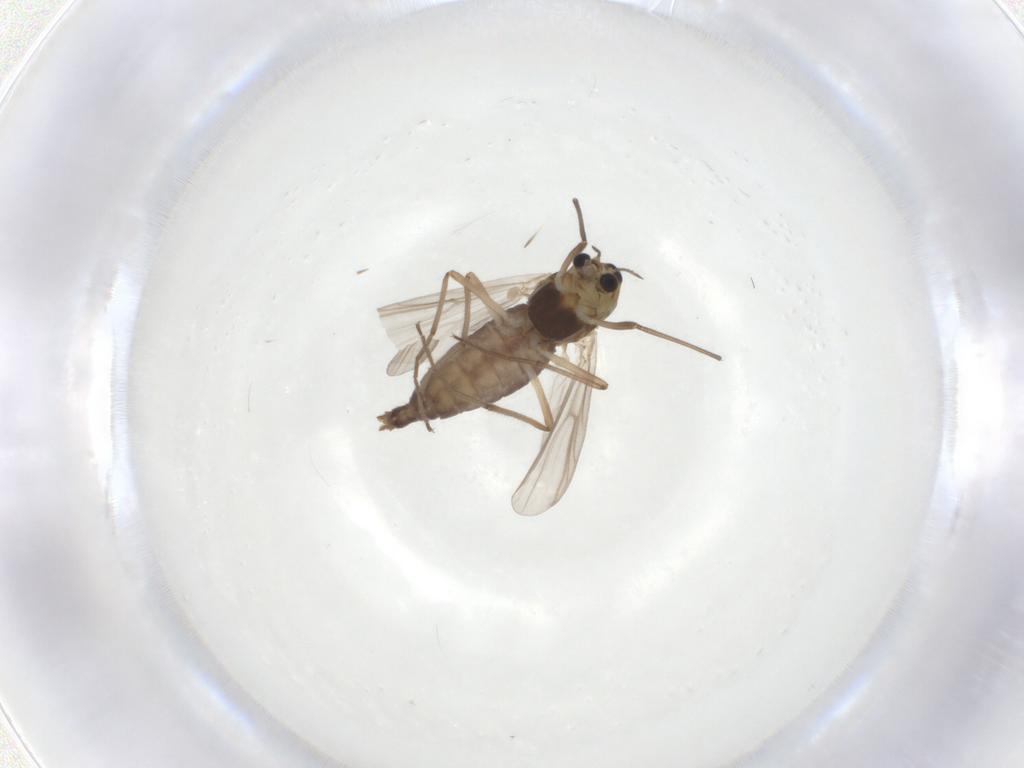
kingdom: Animalia
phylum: Arthropoda
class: Insecta
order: Diptera
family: Chironomidae
